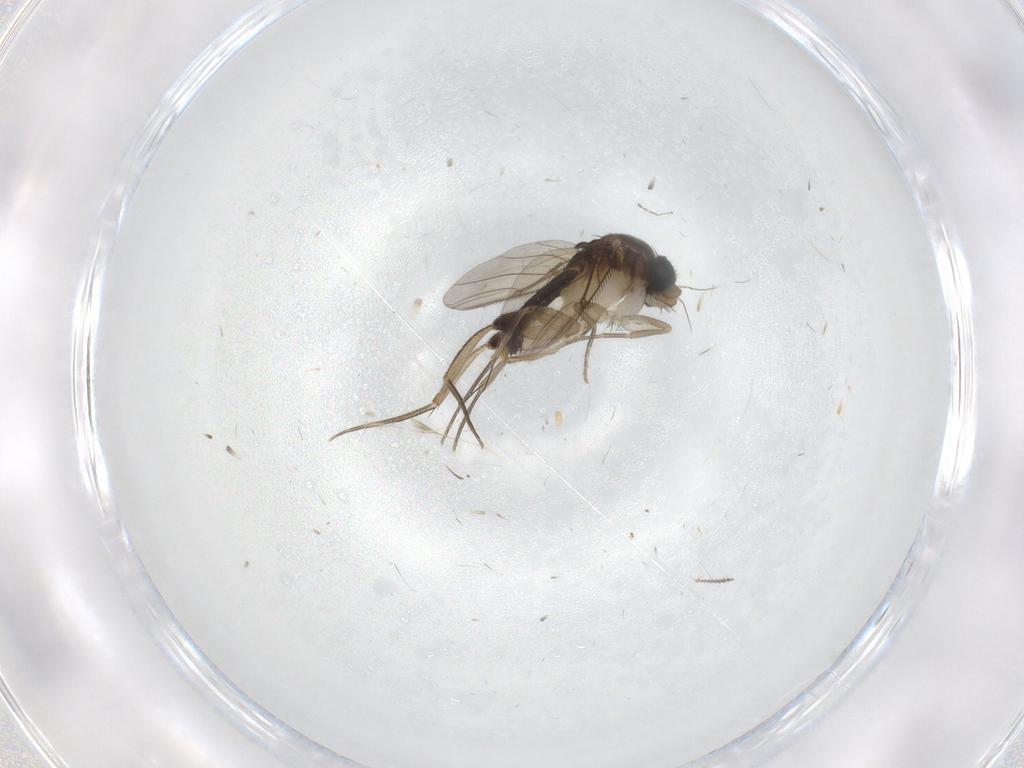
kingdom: Animalia
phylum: Arthropoda
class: Insecta
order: Diptera
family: Phoridae
